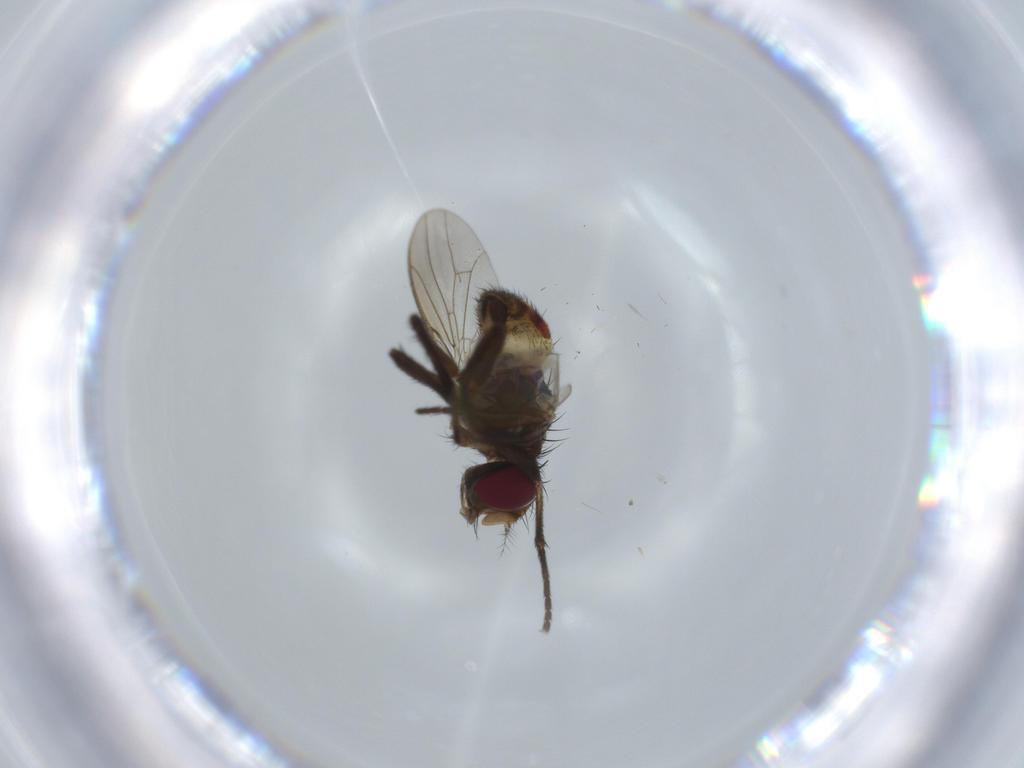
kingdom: Animalia
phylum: Arthropoda
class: Insecta
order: Diptera
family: Anthomyiidae
